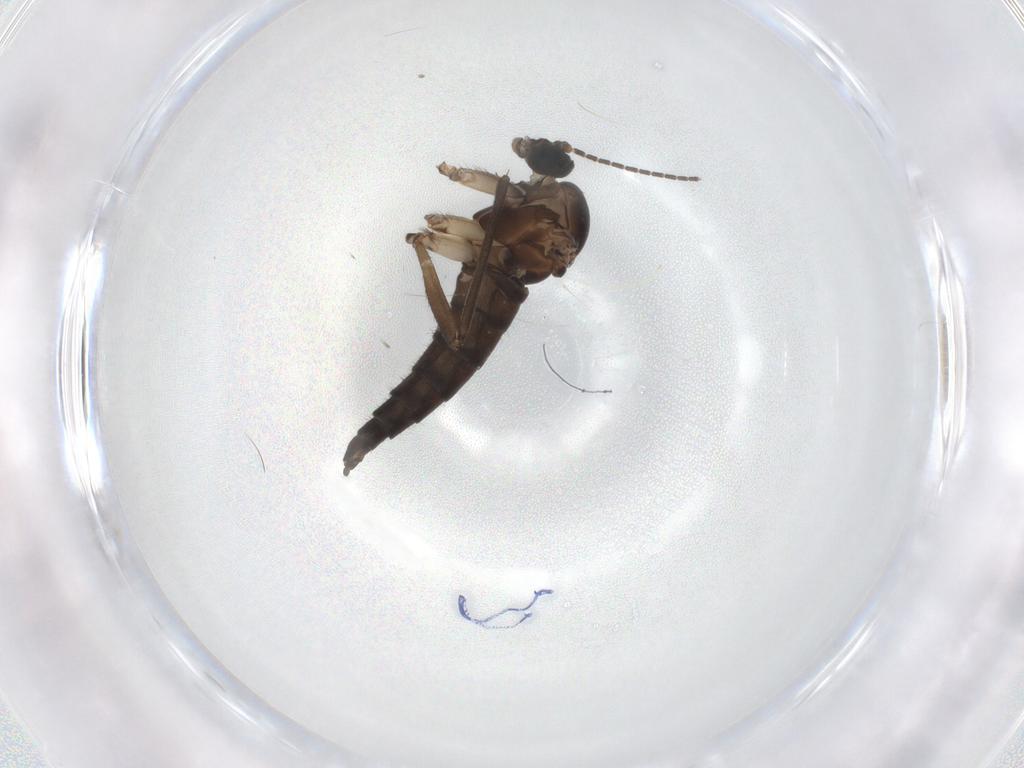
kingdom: Animalia
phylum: Arthropoda
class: Insecta
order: Diptera
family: Sciaridae
